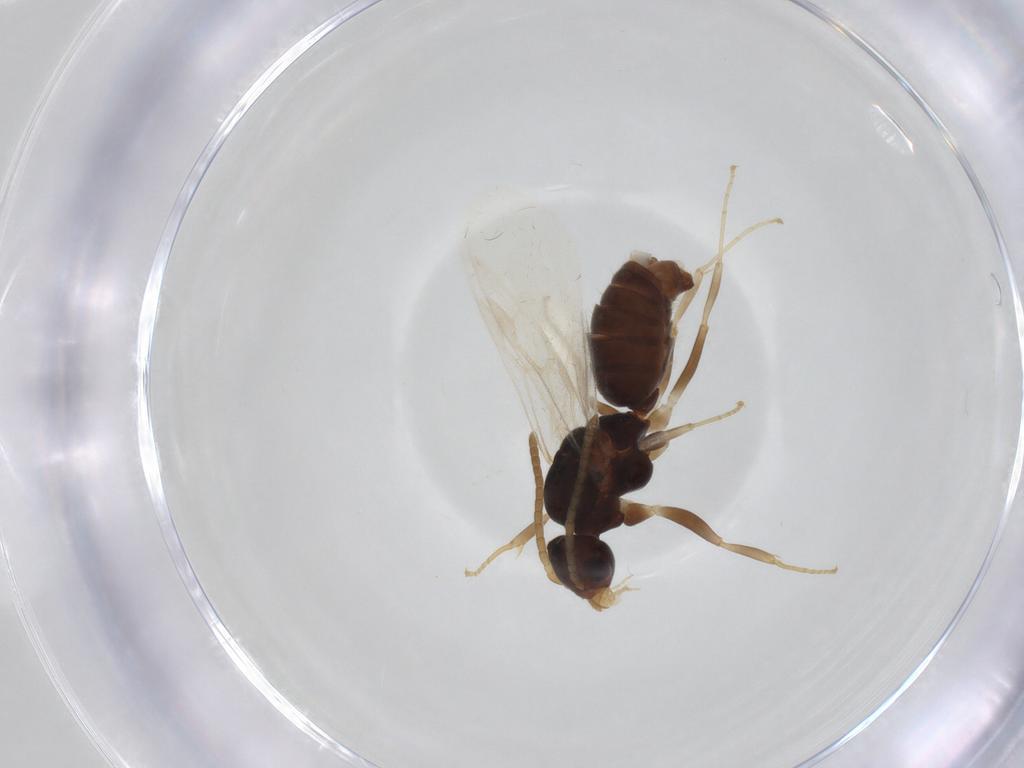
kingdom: Animalia
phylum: Arthropoda
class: Insecta
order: Hymenoptera
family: Formicidae
